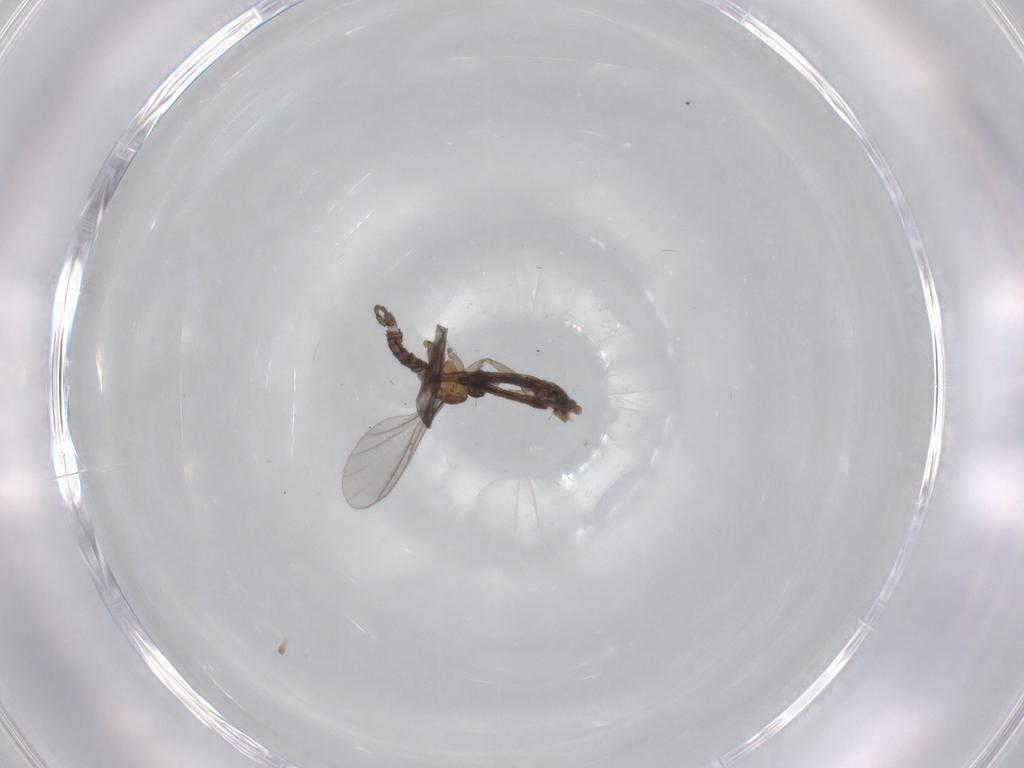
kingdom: Animalia
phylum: Arthropoda
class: Insecta
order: Diptera
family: Sciaridae
